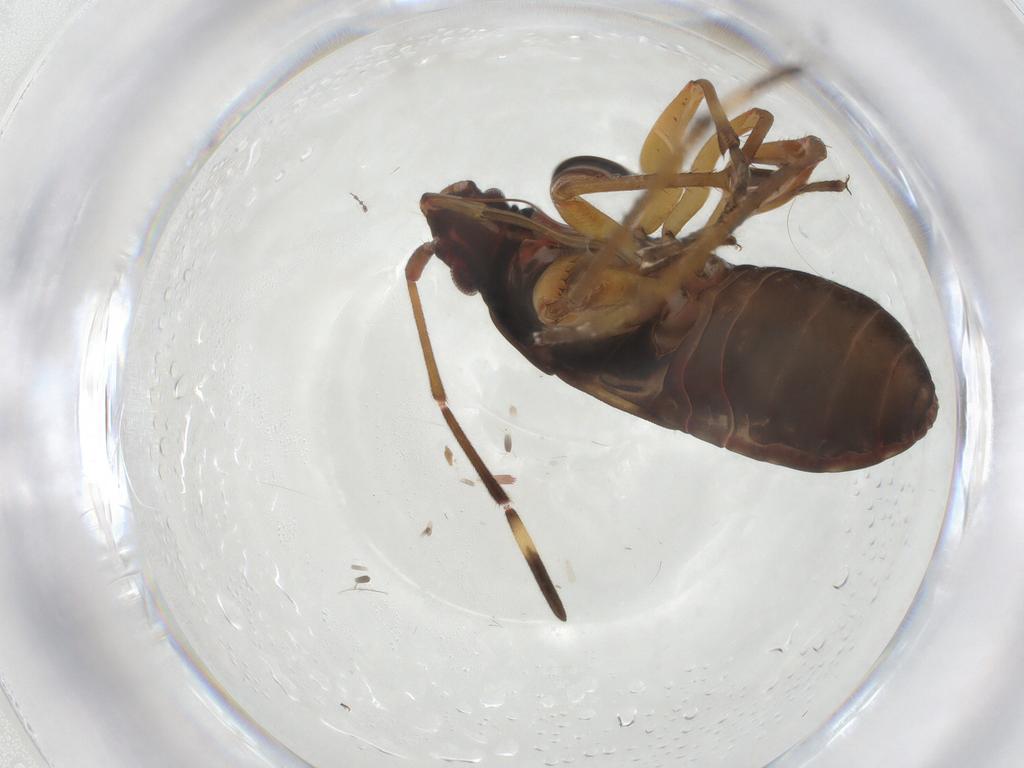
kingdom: Animalia
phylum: Arthropoda
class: Insecta
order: Hemiptera
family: Rhyparochromidae
